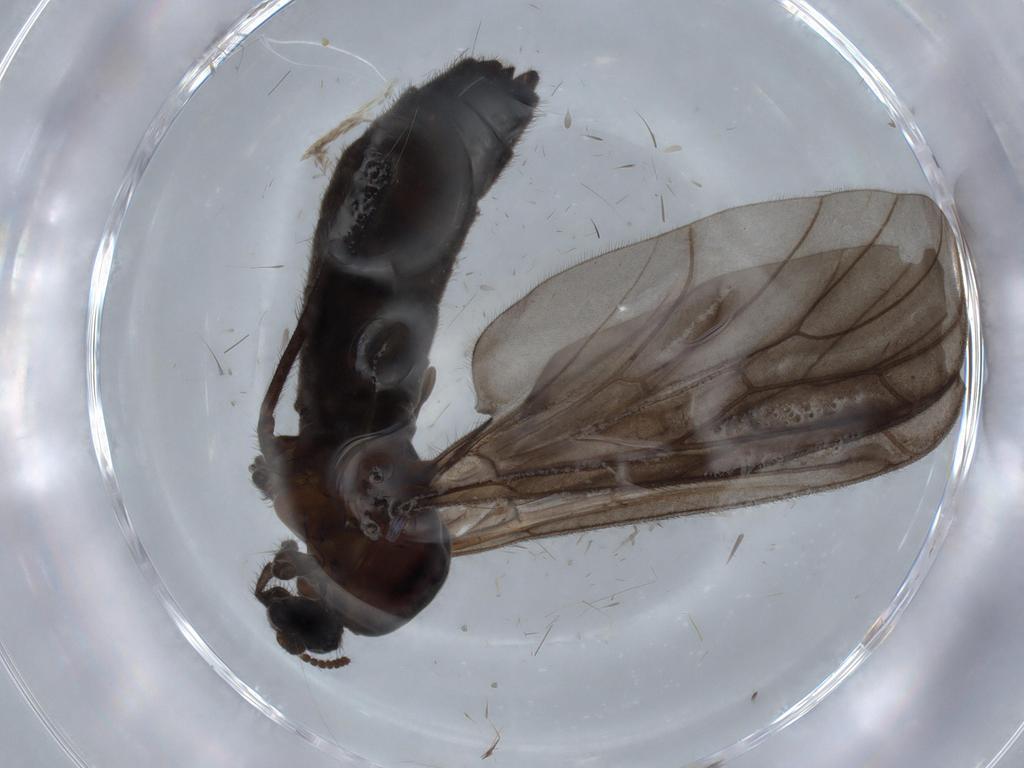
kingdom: Animalia
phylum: Arthropoda
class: Insecta
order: Diptera
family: Bibionidae
